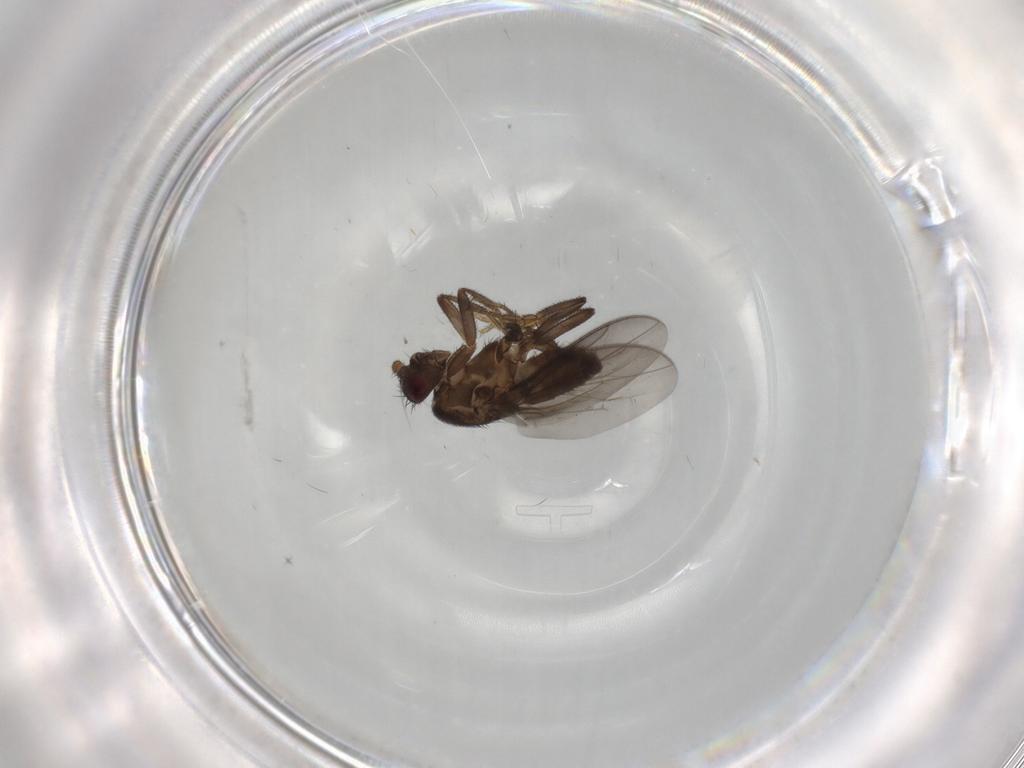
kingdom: Animalia
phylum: Arthropoda
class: Insecta
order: Diptera
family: Sphaeroceridae
